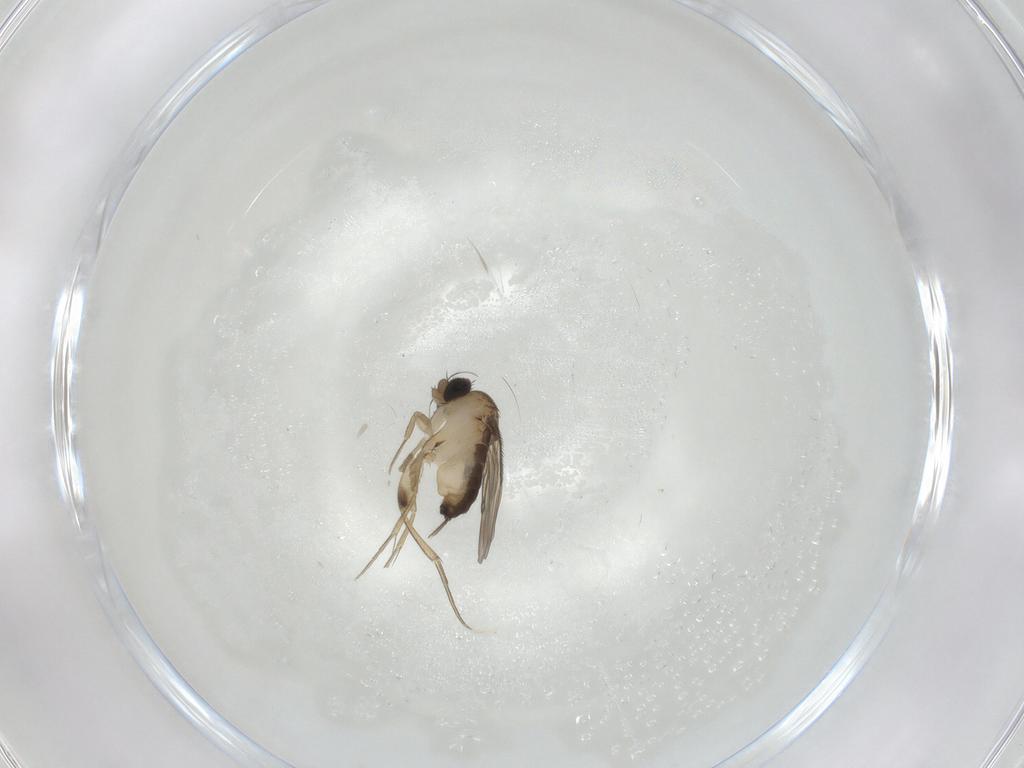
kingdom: Animalia
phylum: Arthropoda
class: Insecta
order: Diptera
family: Phoridae
